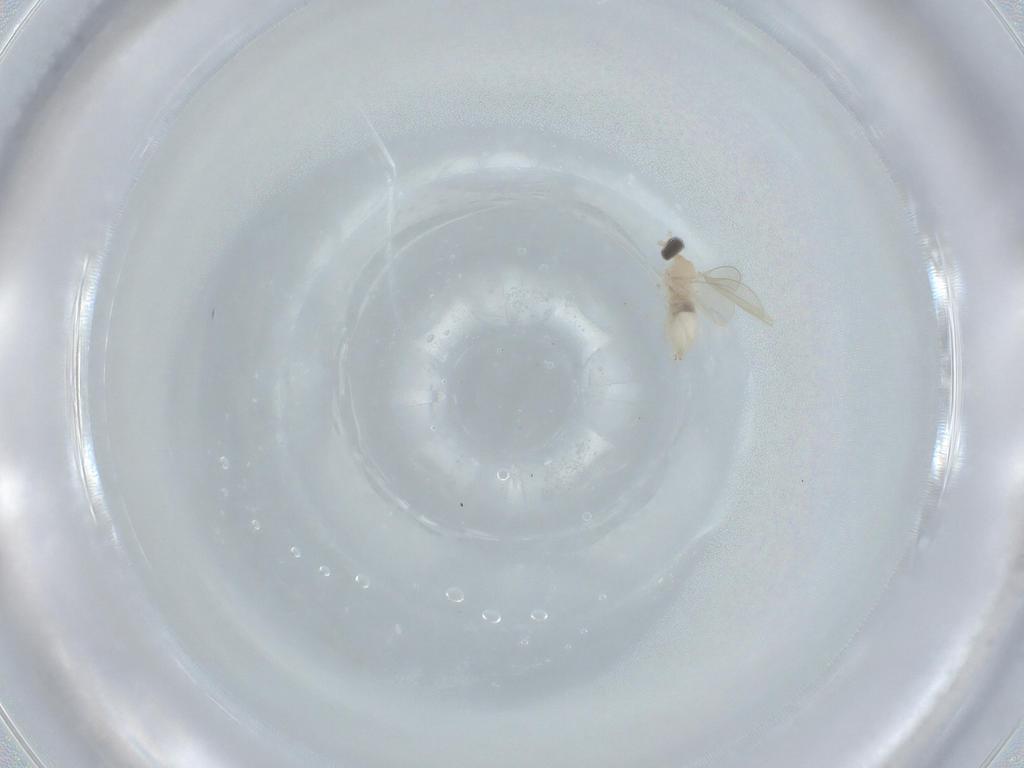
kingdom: Animalia
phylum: Arthropoda
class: Insecta
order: Diptera
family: Cecidomyiidae
